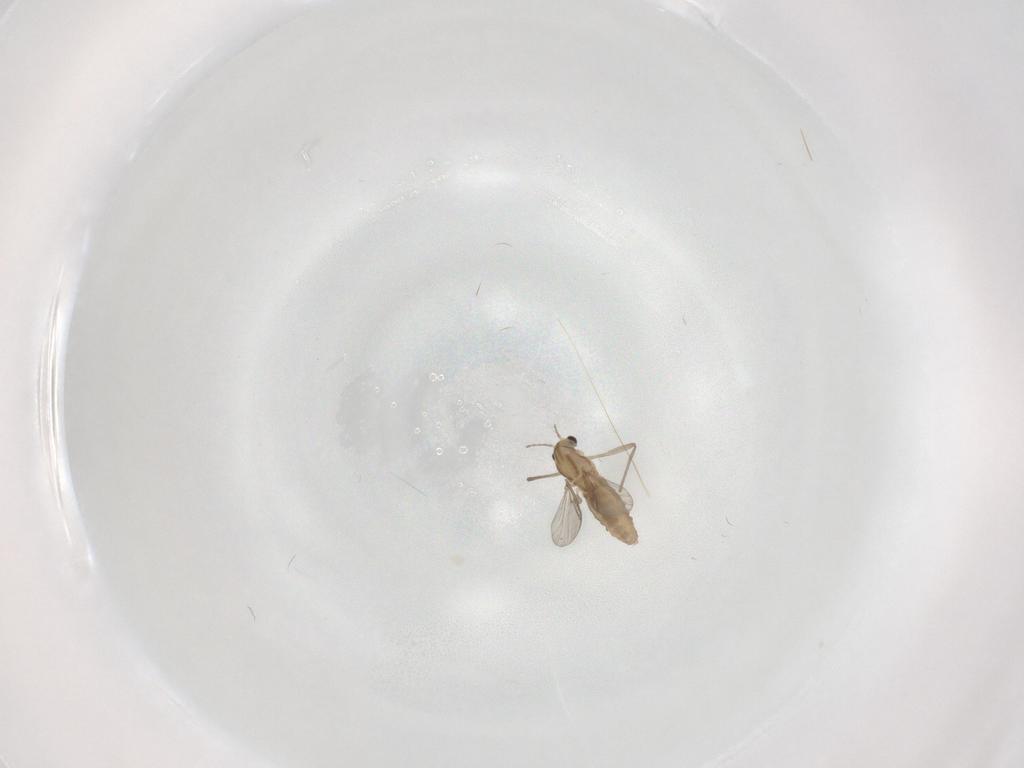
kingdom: Animalia
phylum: Arthropoda
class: Insecta
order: Diptera
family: Chironomidae
